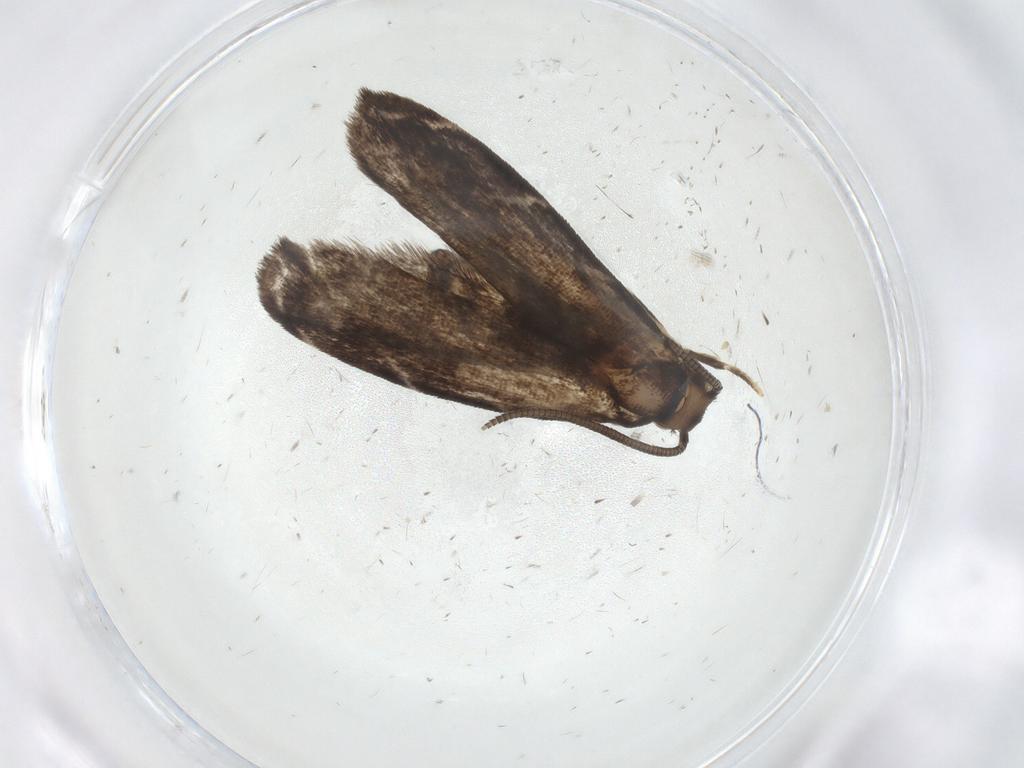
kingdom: Animalia
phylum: Arthropoda
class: Insecta
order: Lepidoptera
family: Dryadaulidae
